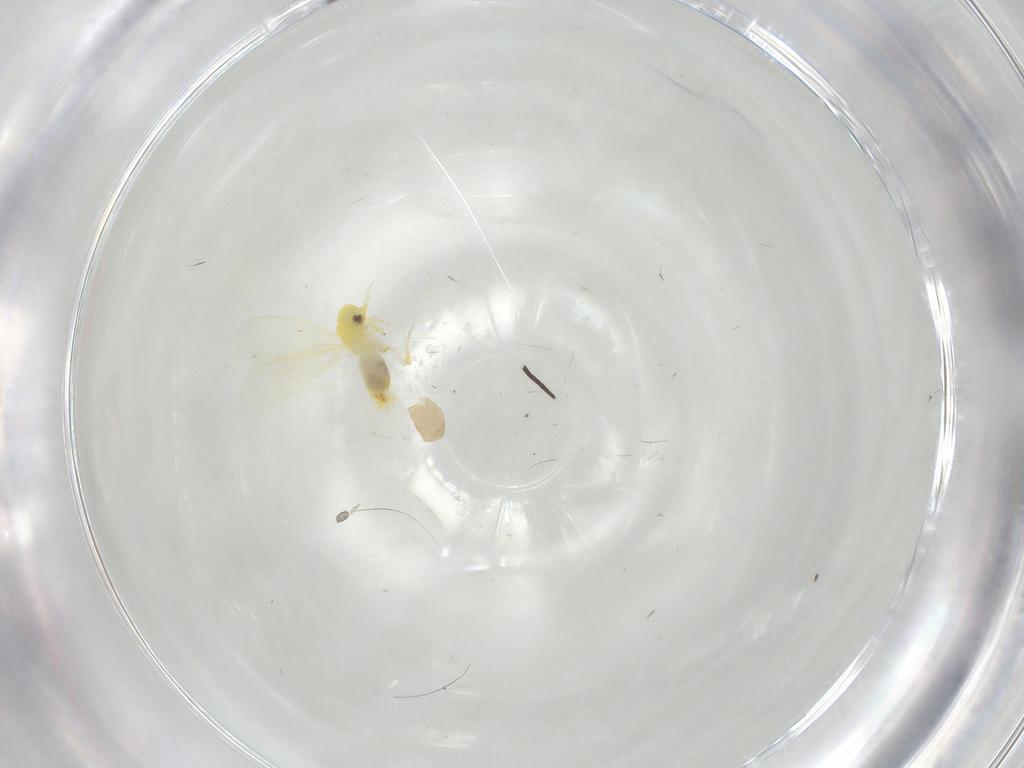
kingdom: Animalia
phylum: Arthropoda
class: Insecta
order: Hemiptera
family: Aleyrodidae
